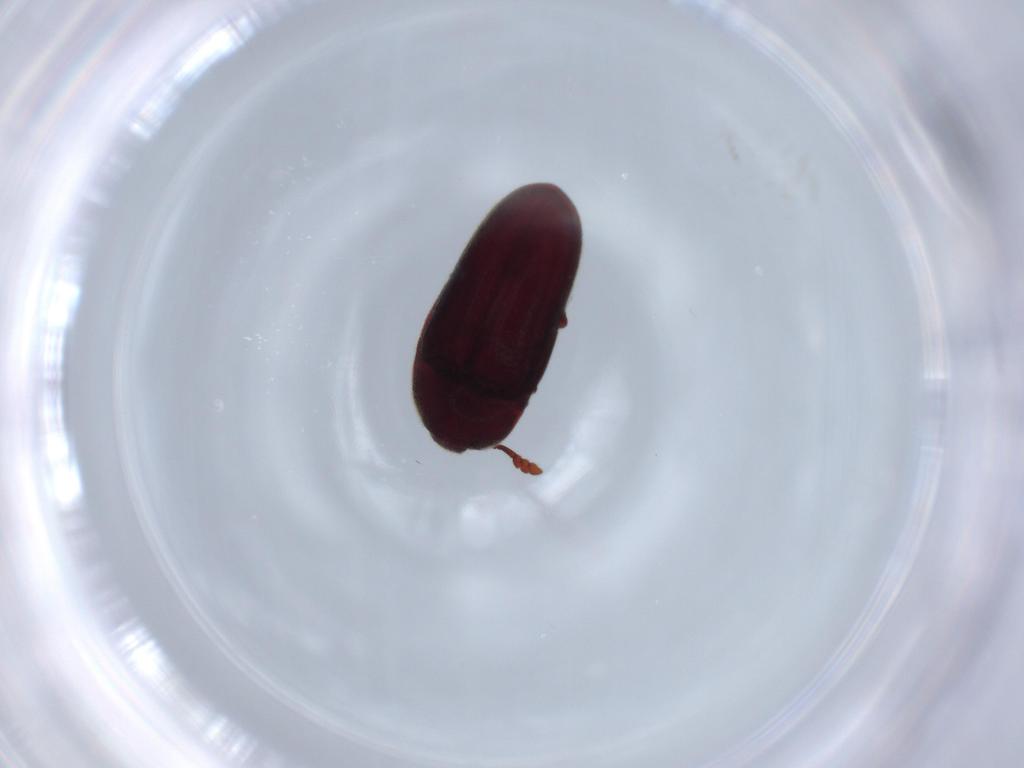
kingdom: Animalia
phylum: Arthropoda
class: Insecta
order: Coleoptera
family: Throscidae
